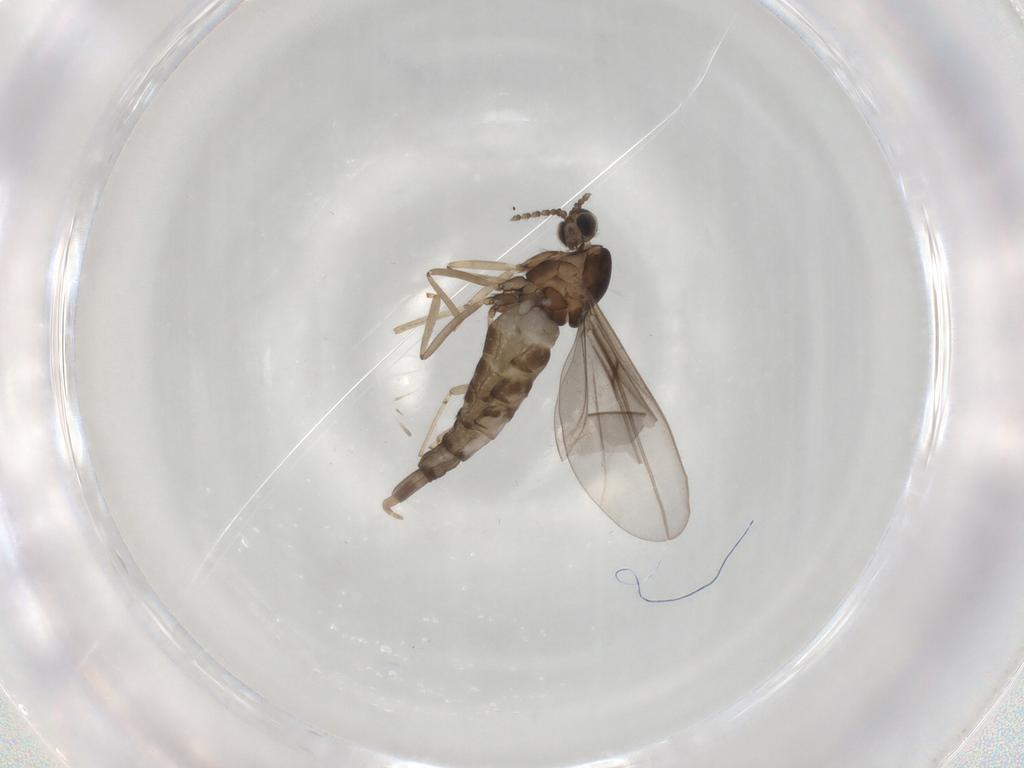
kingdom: Animalia
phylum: Arthropoda
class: Insecta
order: Diptera
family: Cecidomyiidae
